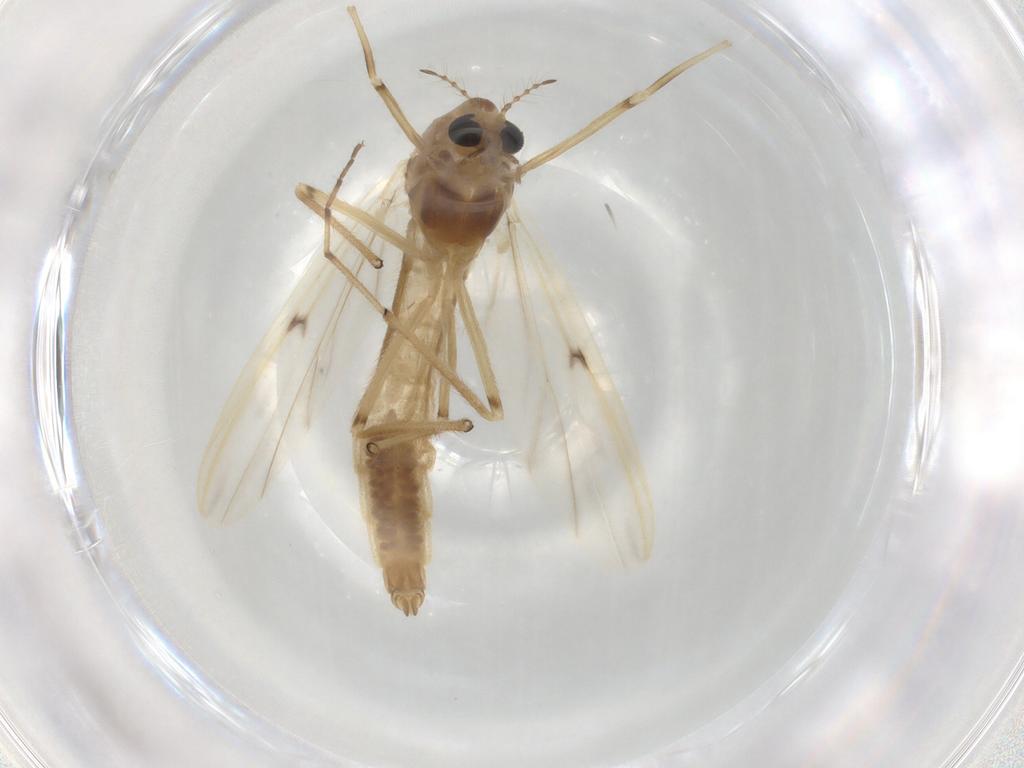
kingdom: Animalia
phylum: Arthropoda
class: Insecta
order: Diptera
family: Chironomidae
